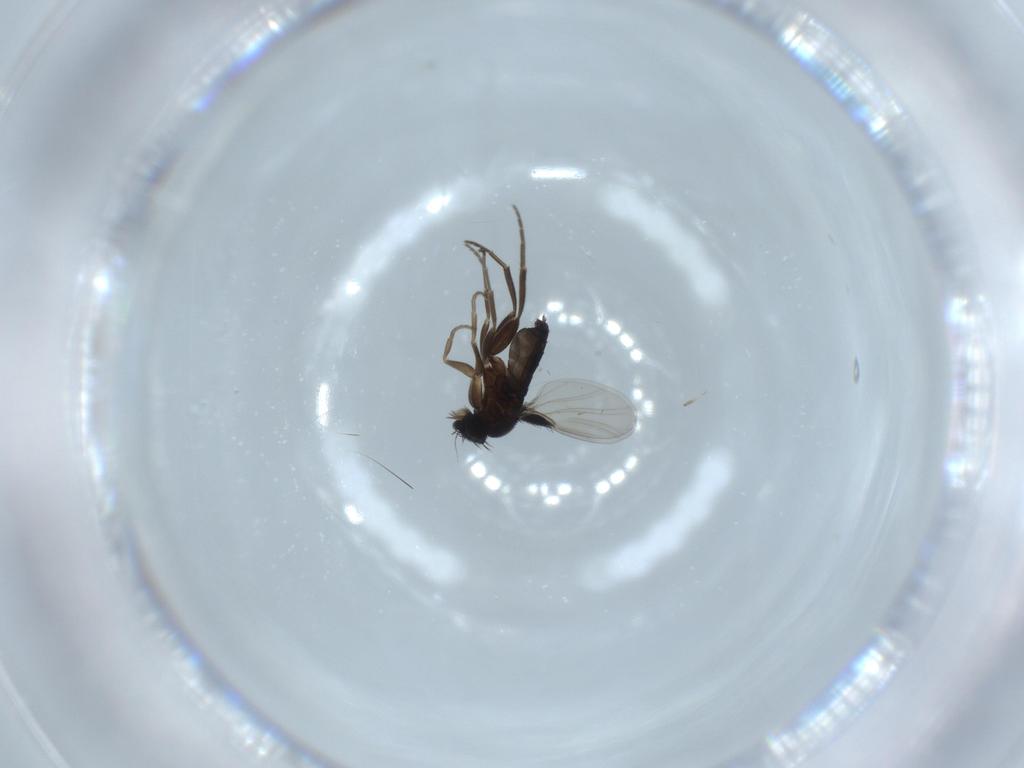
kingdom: Animalia
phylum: Arthropoda
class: Insecta
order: Diptera
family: Phoridae
